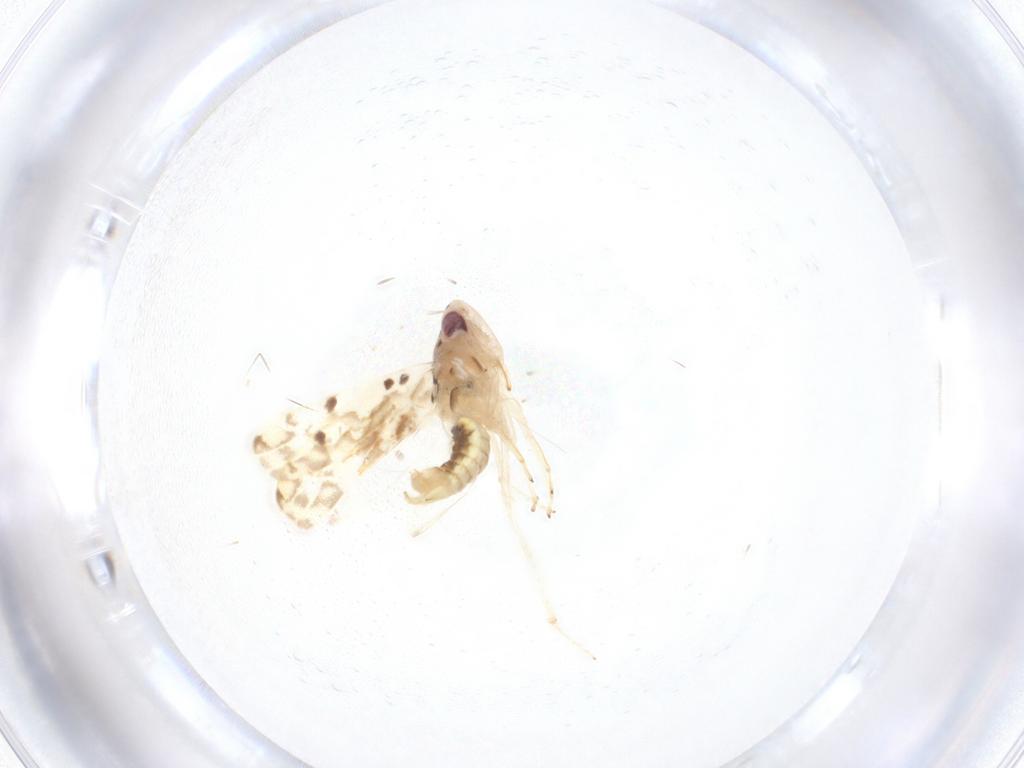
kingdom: Animalia
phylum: Arthropoda
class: Insecta
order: Hemiptera
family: Cicadellidae
